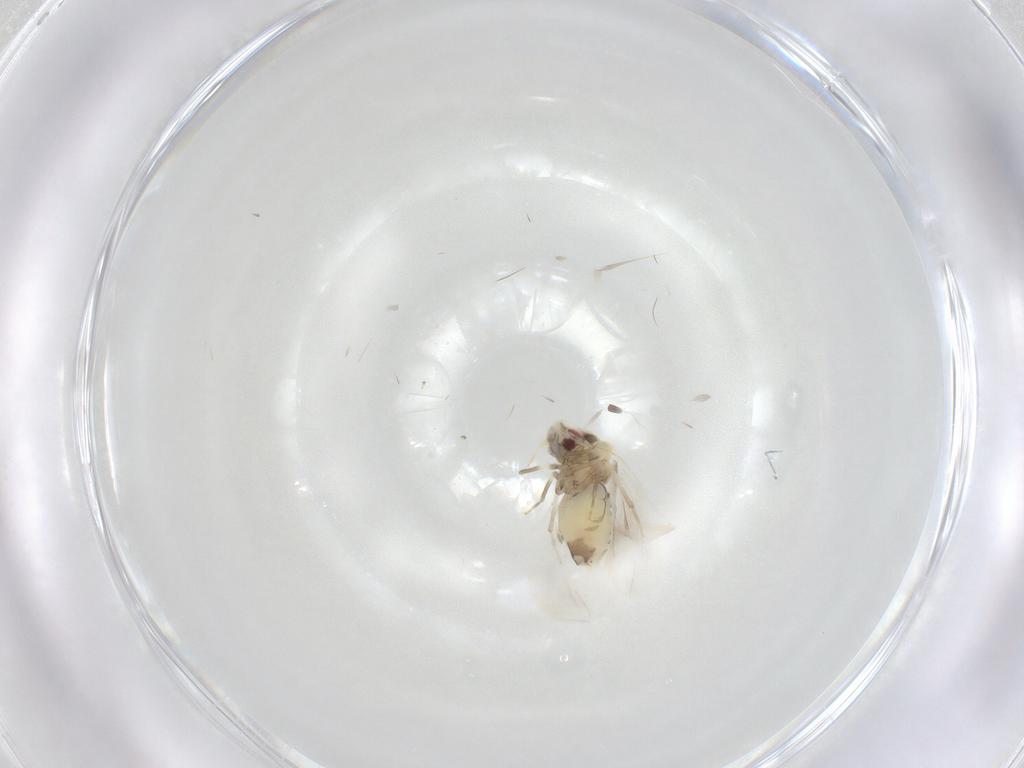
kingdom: Animalia
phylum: Arthropoda
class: Insecta
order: Hemiptera
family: Aleyrodidae
